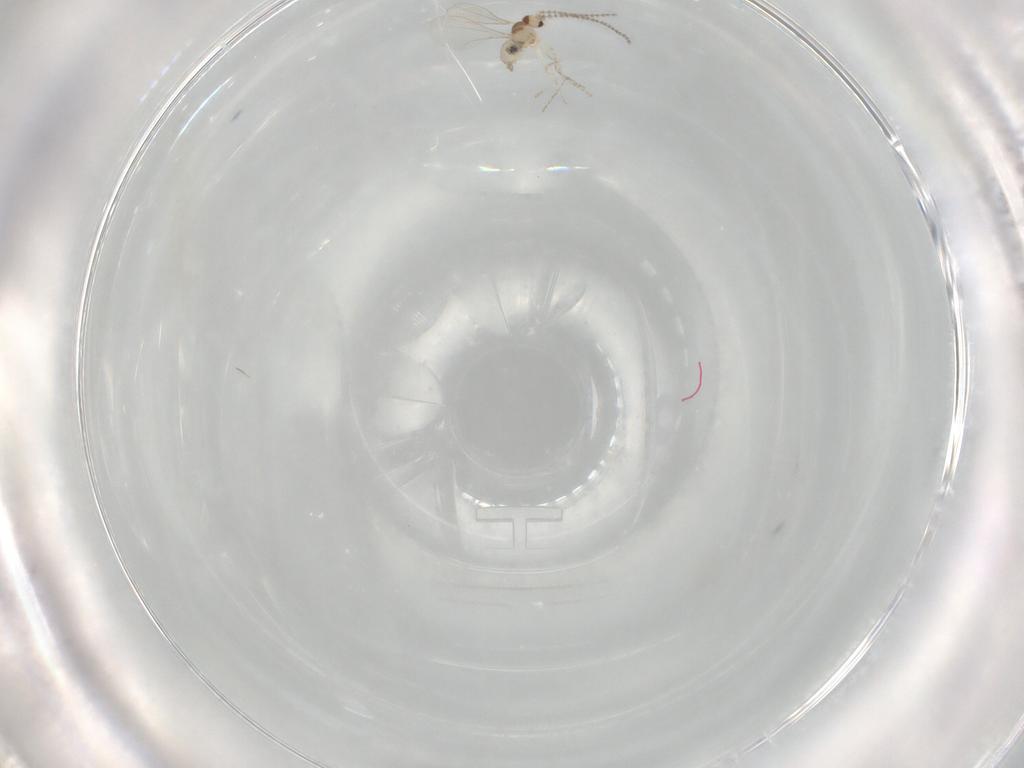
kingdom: Animalia
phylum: Arthropoda
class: Insecta
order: Diptera
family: Cecidomyiidae
